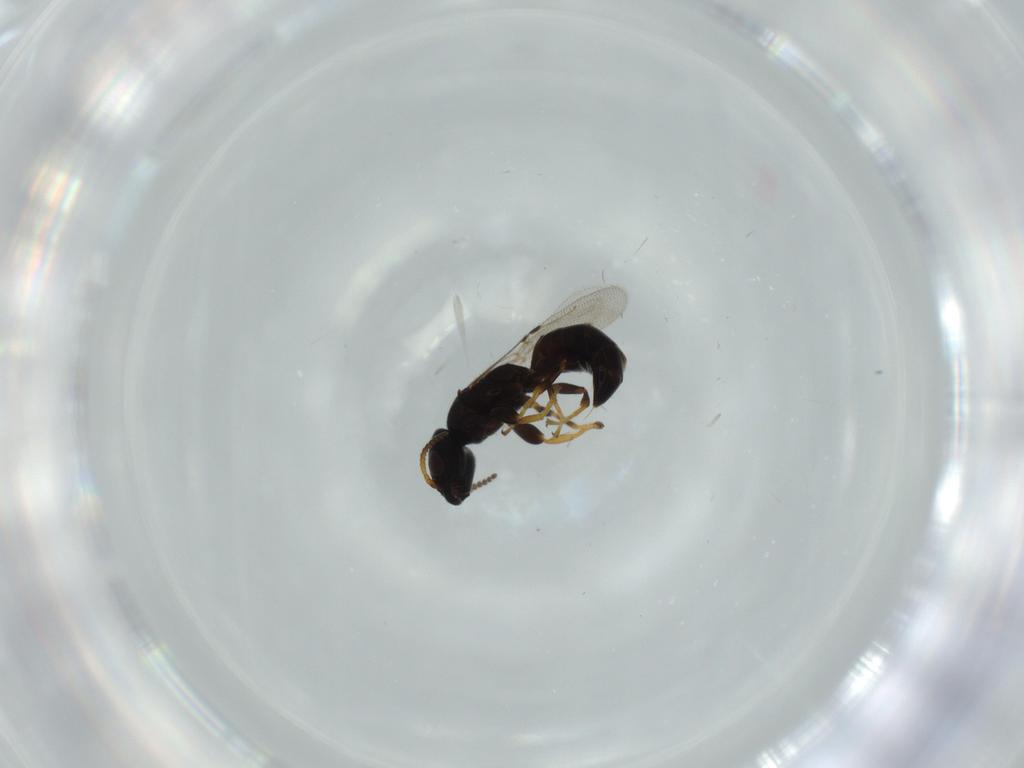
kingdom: Animalia
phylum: Arthropoda
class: Insecta
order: Hymenoptera
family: Bethylidae
